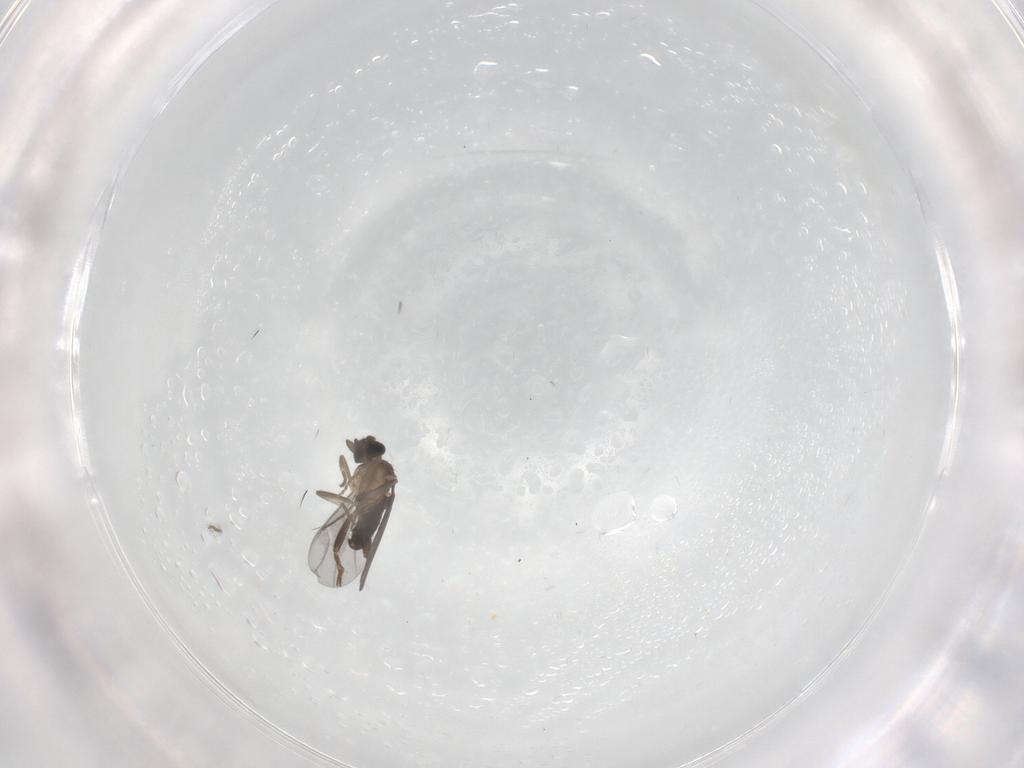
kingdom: Animalia
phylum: Arthropoda
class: Insecta
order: Diptera
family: Ceratopogonidae
